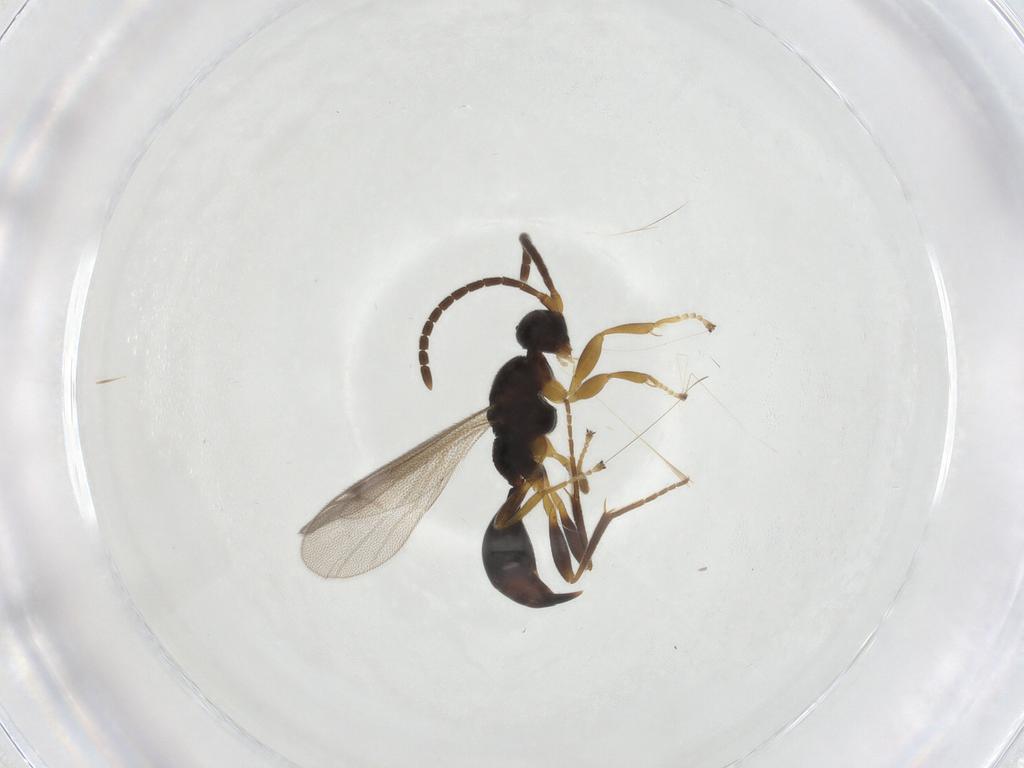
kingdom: Animalia
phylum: Arthropoda
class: Insecta
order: Hymenoptera
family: Proctotrupidae
